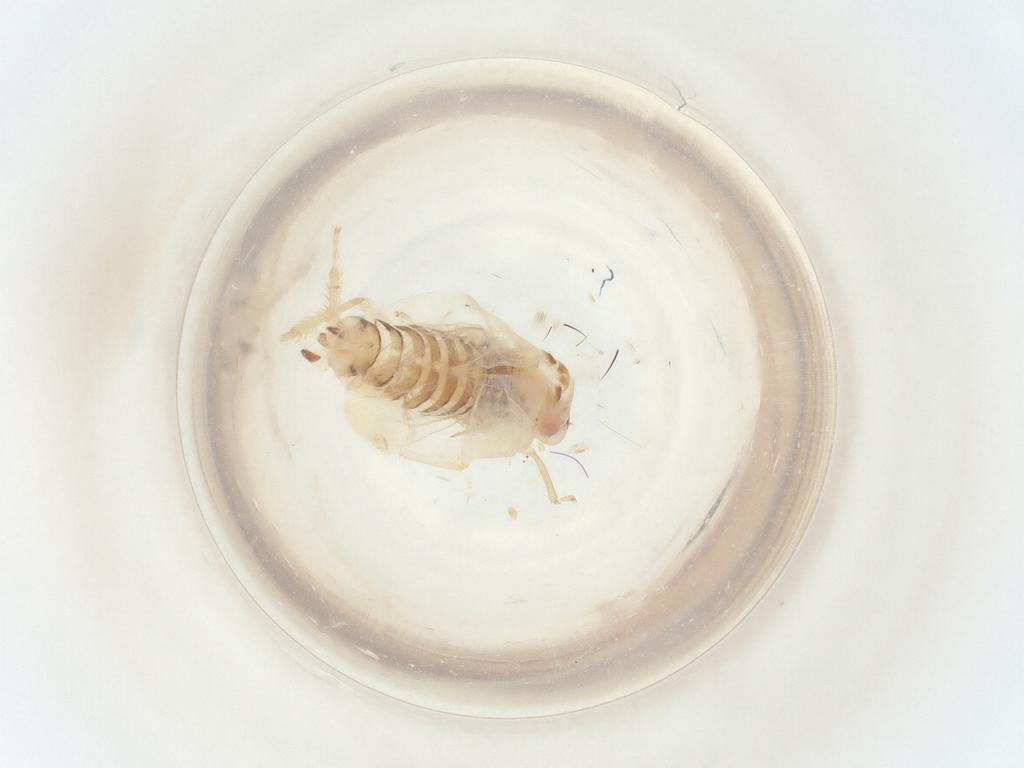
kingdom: Animalia
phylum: Arthropoda
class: Insecta
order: Hemiptera
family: Cicadellidae
